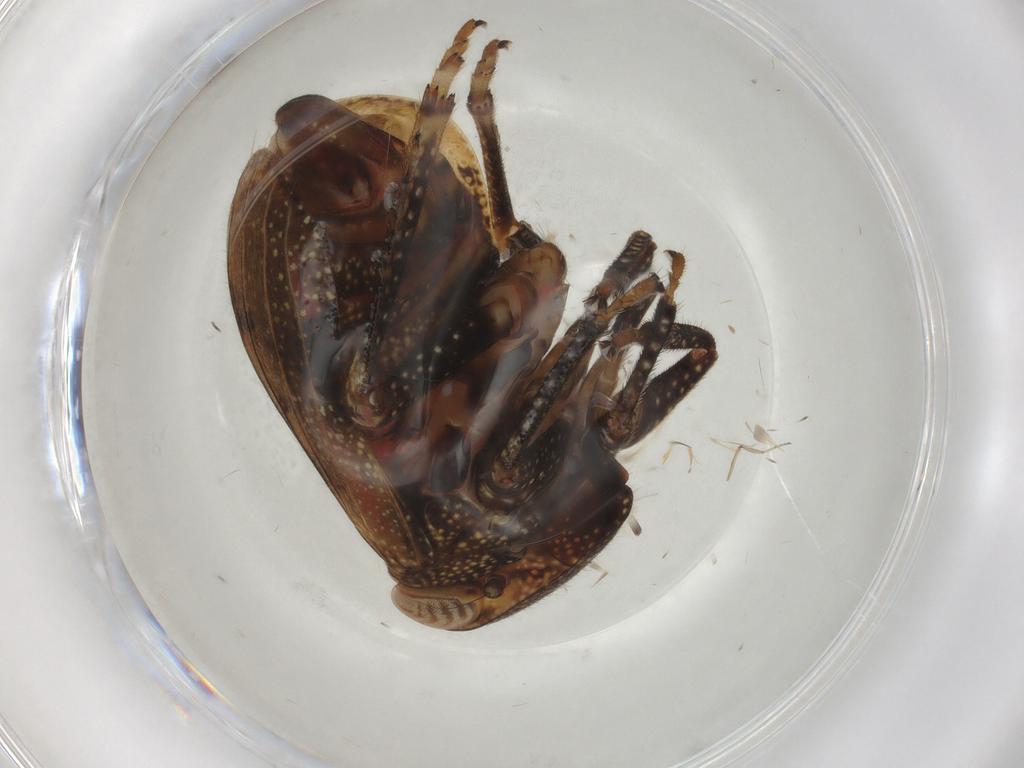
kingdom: Animalia
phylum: Arthropoda
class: Insecta
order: Hemiptera
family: Tropiduchidae
